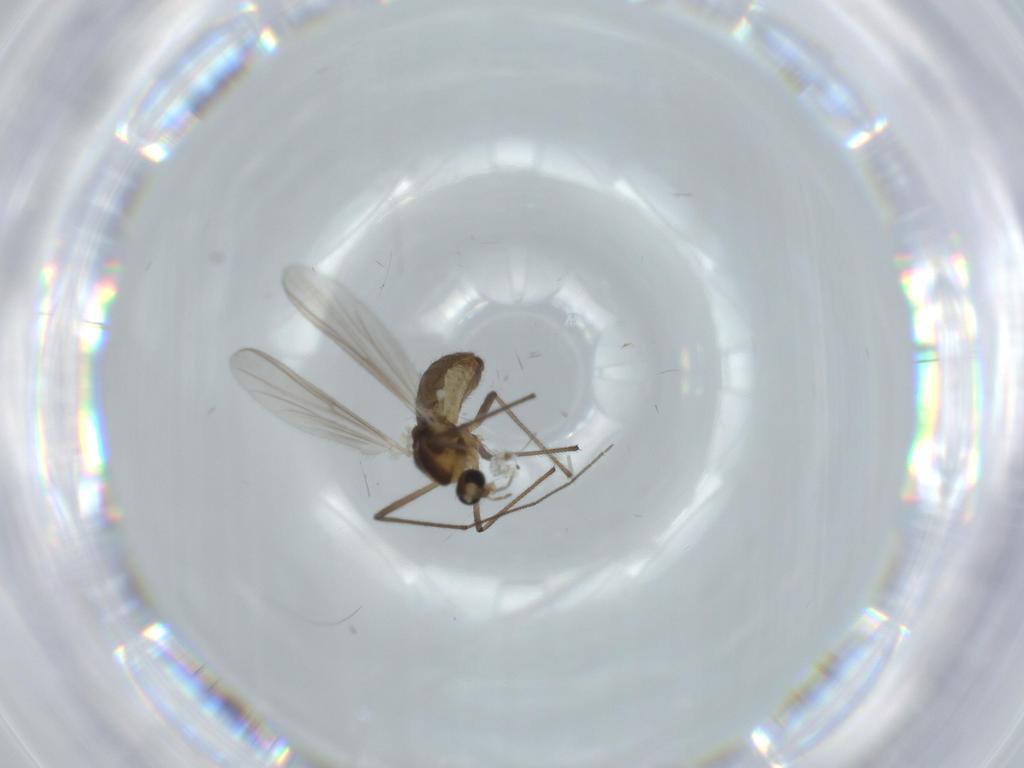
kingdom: Animalia
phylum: Arthropoda
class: Insecta
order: Diptera
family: Chironomidae
